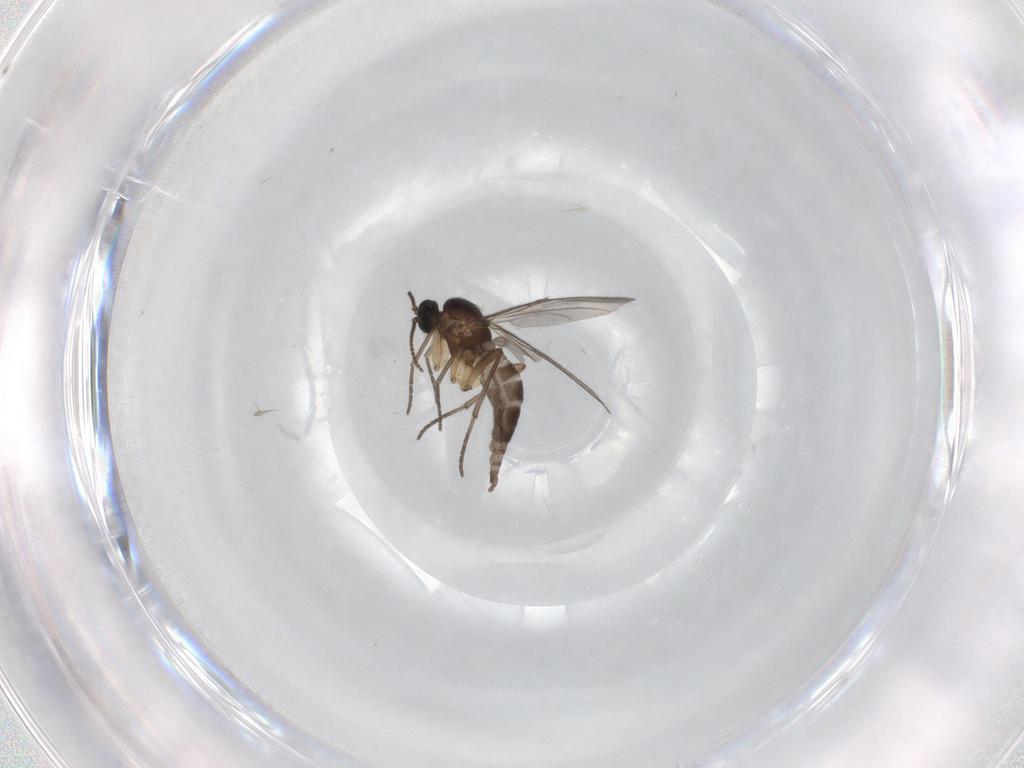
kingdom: Animalia
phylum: Arthropoda
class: Insecta
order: Diptera
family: Sciaridae
